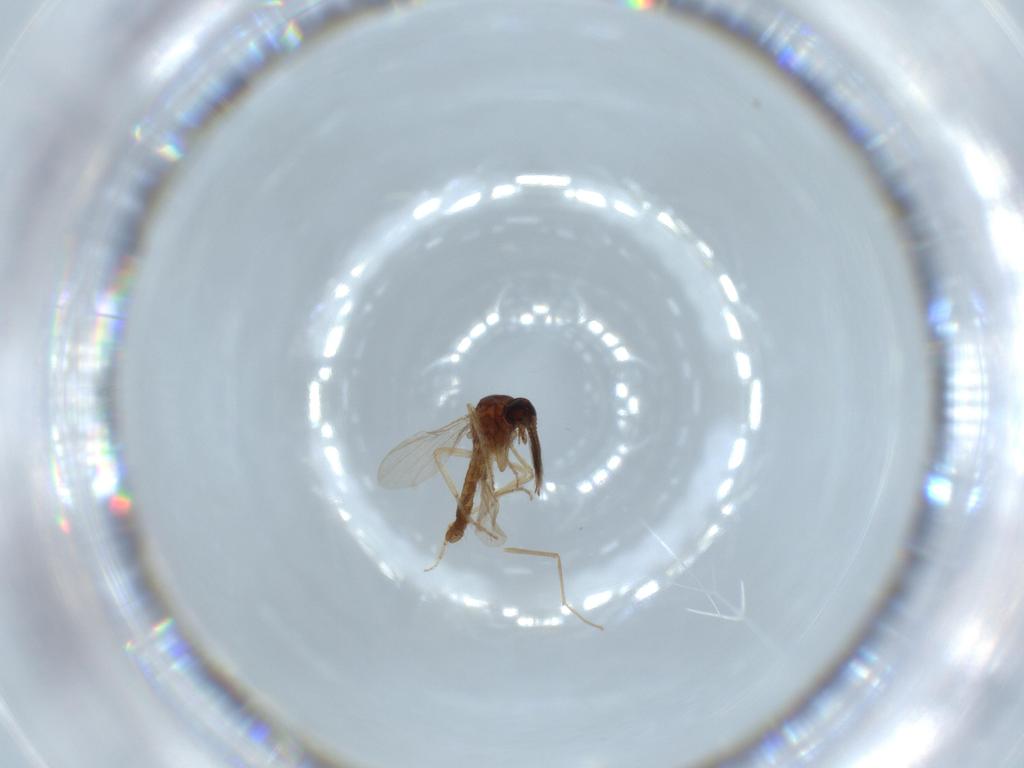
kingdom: Animalia
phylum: Arthropoda
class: Insecta
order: Diptera
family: Ceratopogonidae
